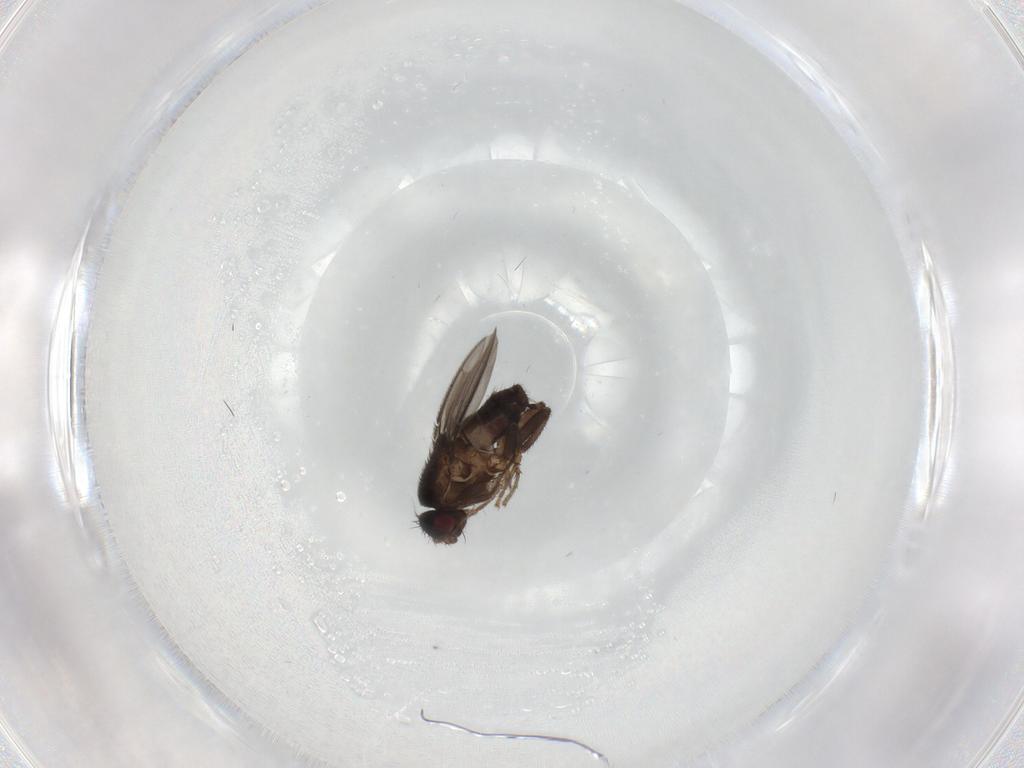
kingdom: Animalia
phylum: Arthropoda
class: Insecta
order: Diptera
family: Sphaeroceridae
